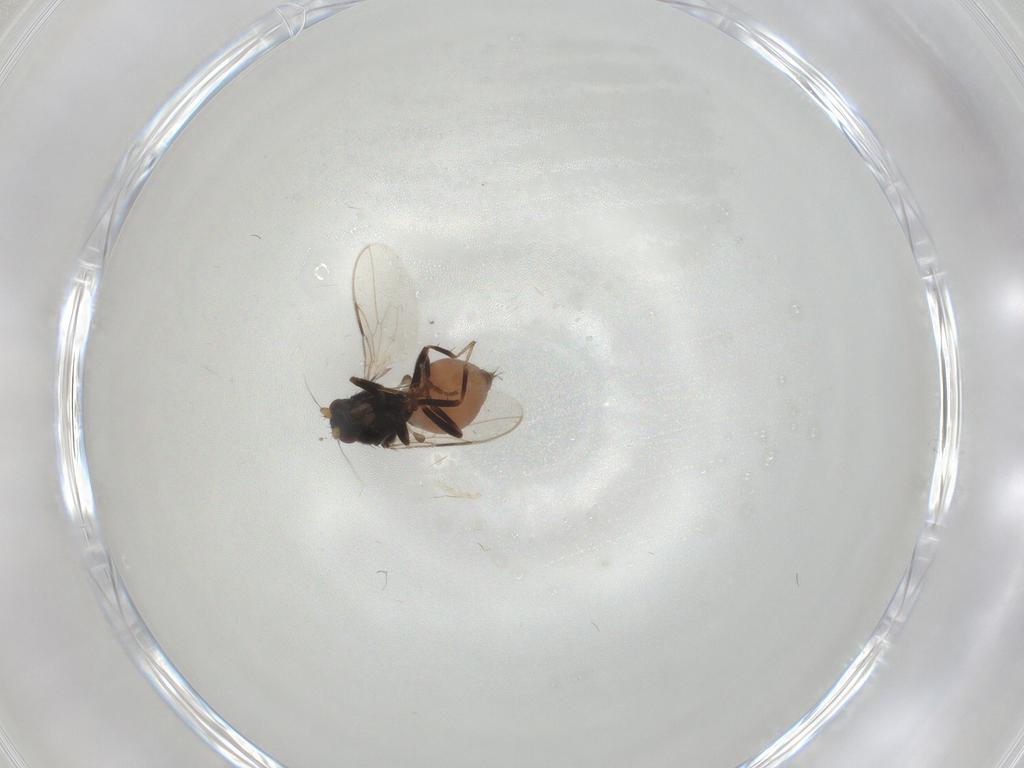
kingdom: Animalia
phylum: Arthropoda
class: Insecta
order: Diptera
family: Sphaeroceridae
